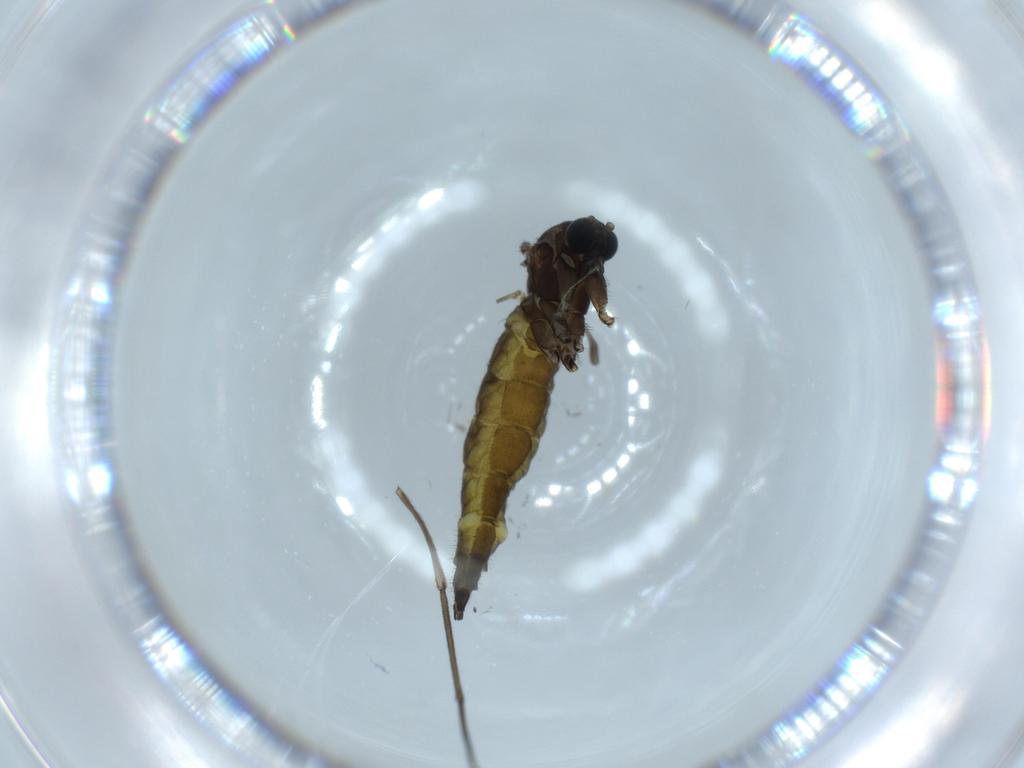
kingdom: Animalia
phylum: Arthropoda
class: Insecta
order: Diptera
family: Sciaridae
